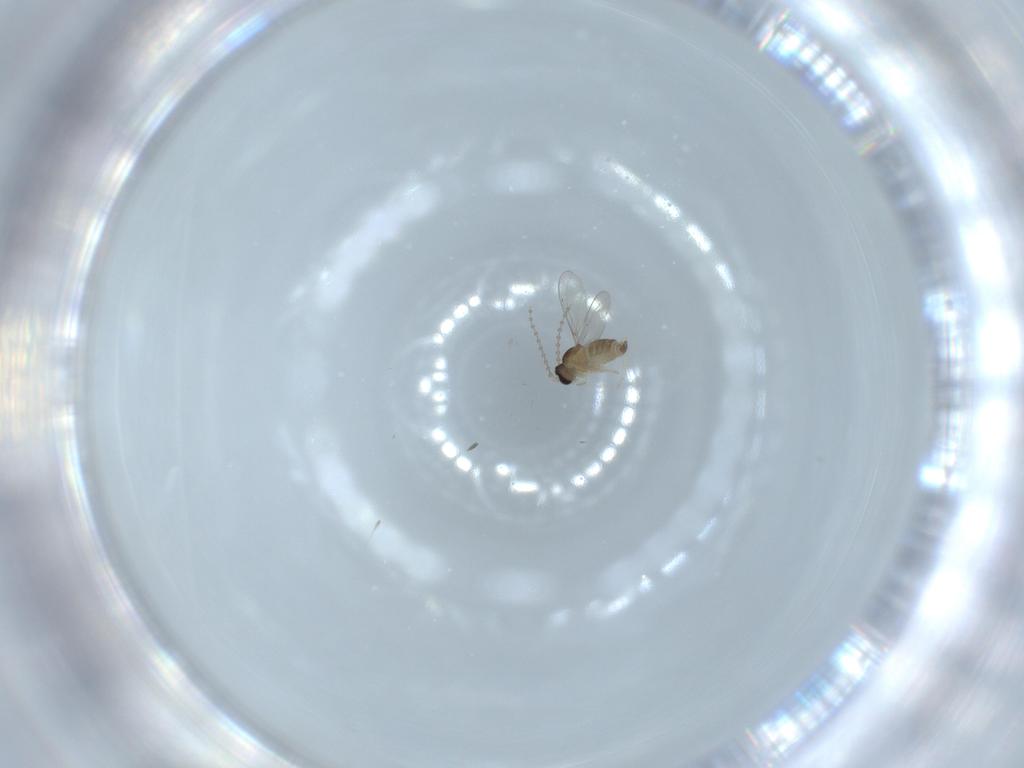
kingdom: Animalia
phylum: Arthropoda
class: Insecta
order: Diptera
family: Cecidomyiidae
